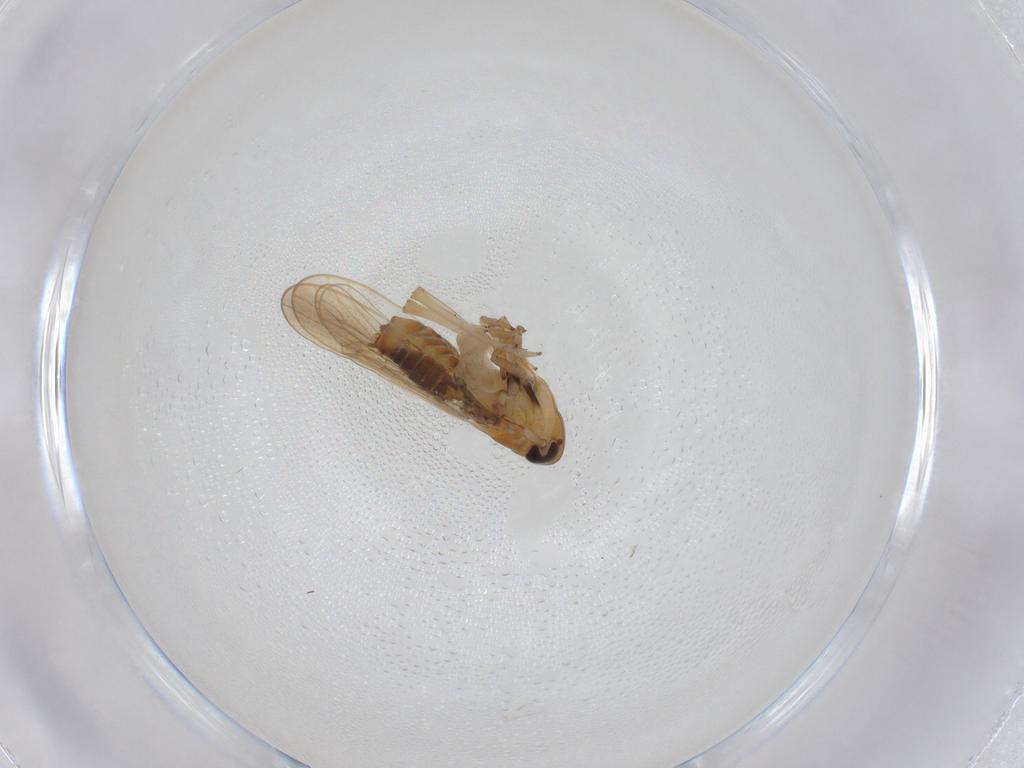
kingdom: Animalia
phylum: Arthropoda
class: Insecta
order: Hemiptera
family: Delphacidae
